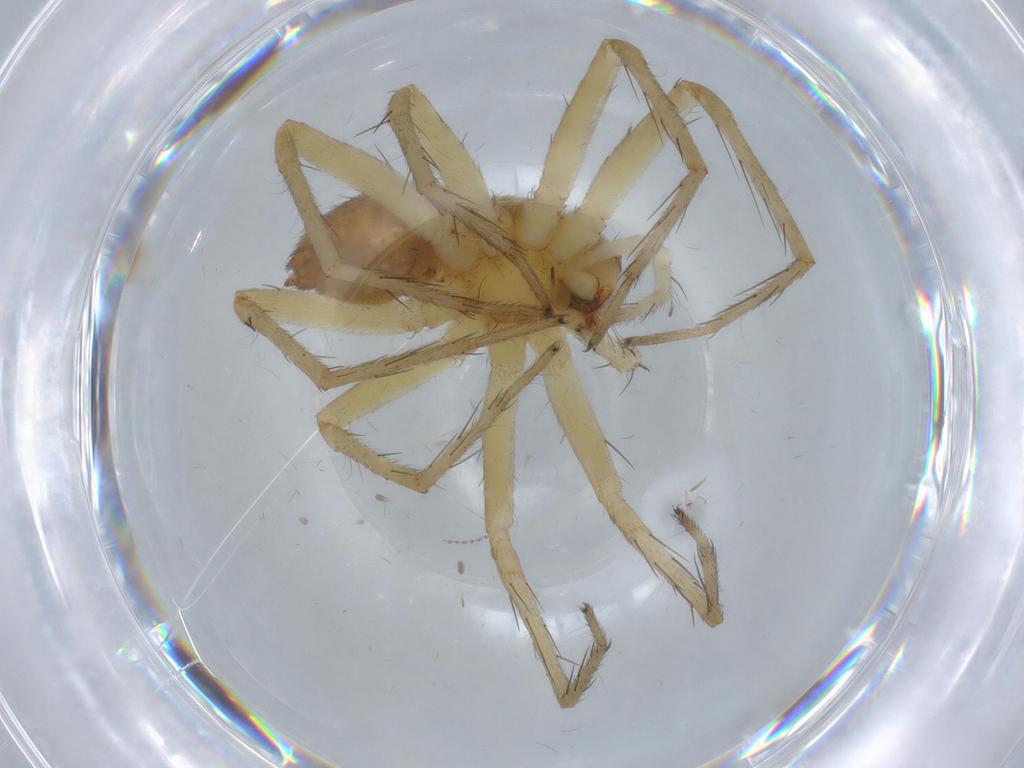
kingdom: Animalia
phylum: Arthropoda
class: Arachnida
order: Araneae
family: Pisauridae
